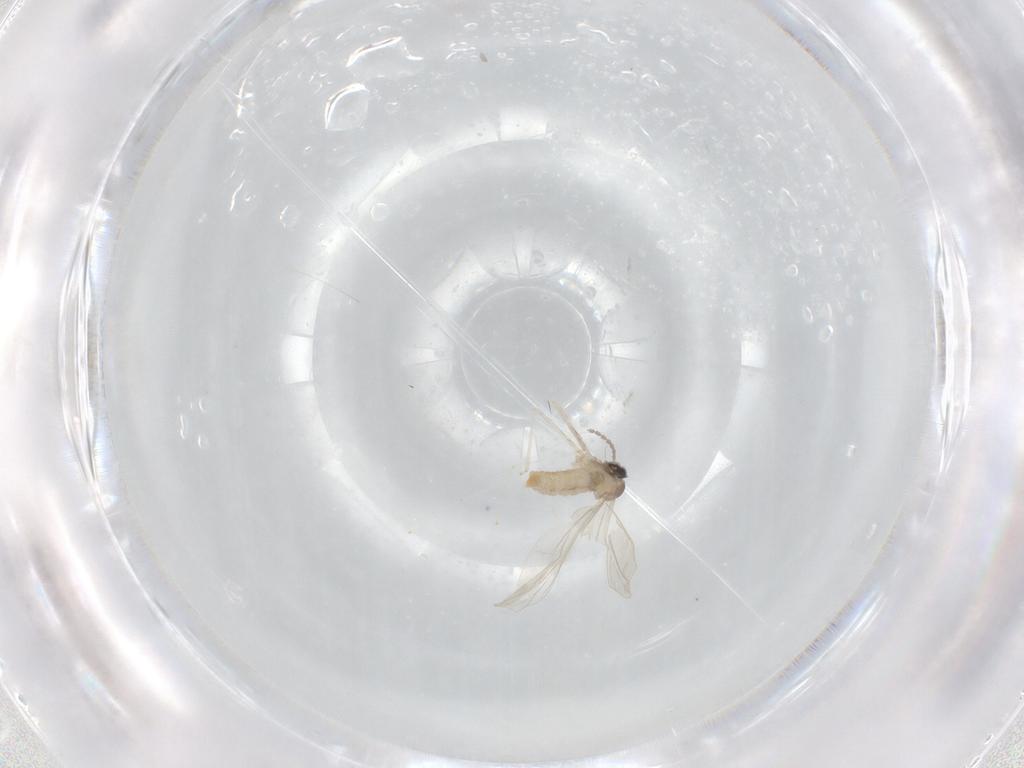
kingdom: Animalia
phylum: Arthropoda
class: Insecta
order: Diptera
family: Cecidomyiidae
